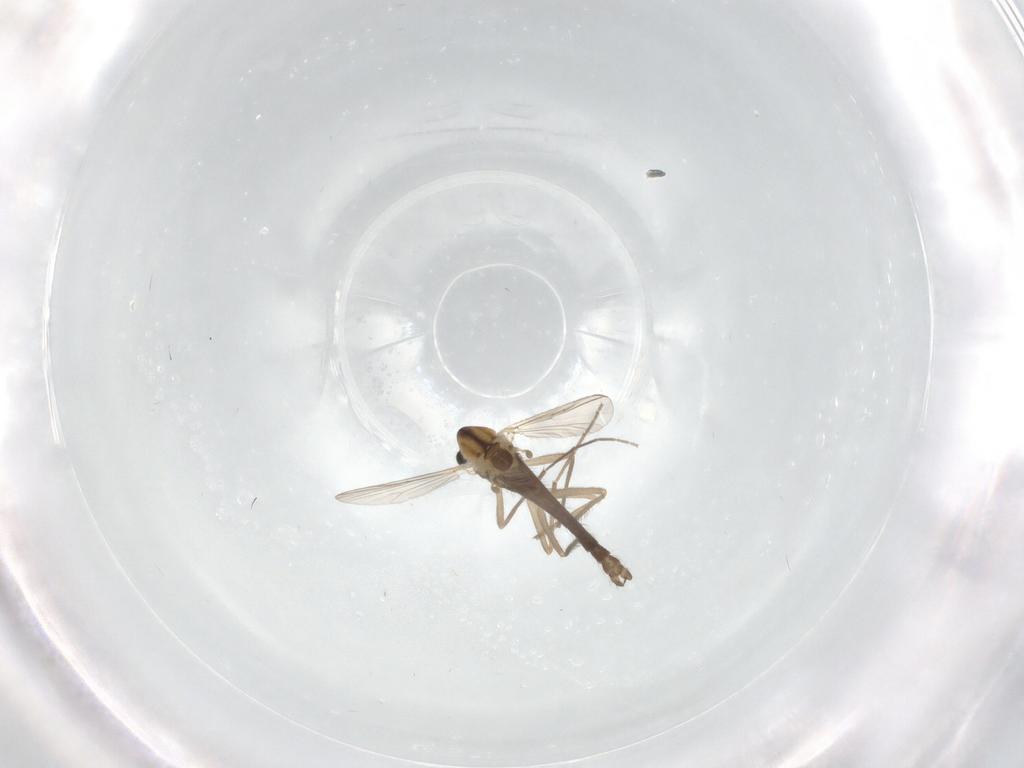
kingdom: Animalia
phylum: Arthropoda
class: Insecta
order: Diptera
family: Chironomidae
